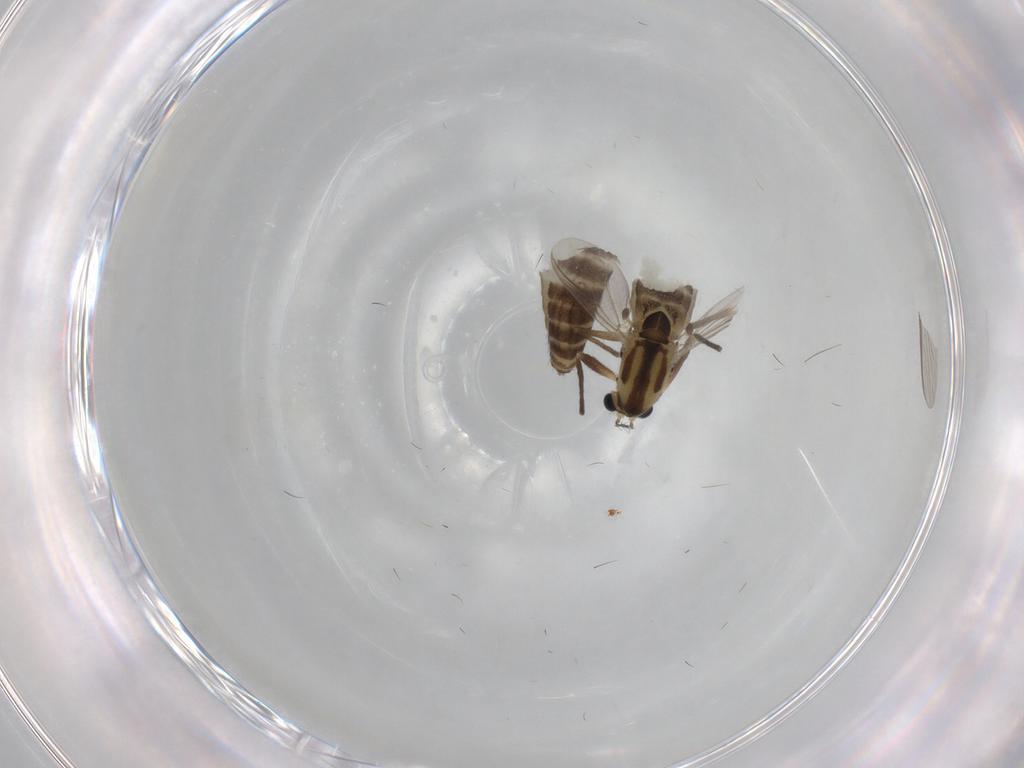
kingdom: Animalia
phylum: Arthropoda
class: Insecta
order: Diptera
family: Chironomidae
